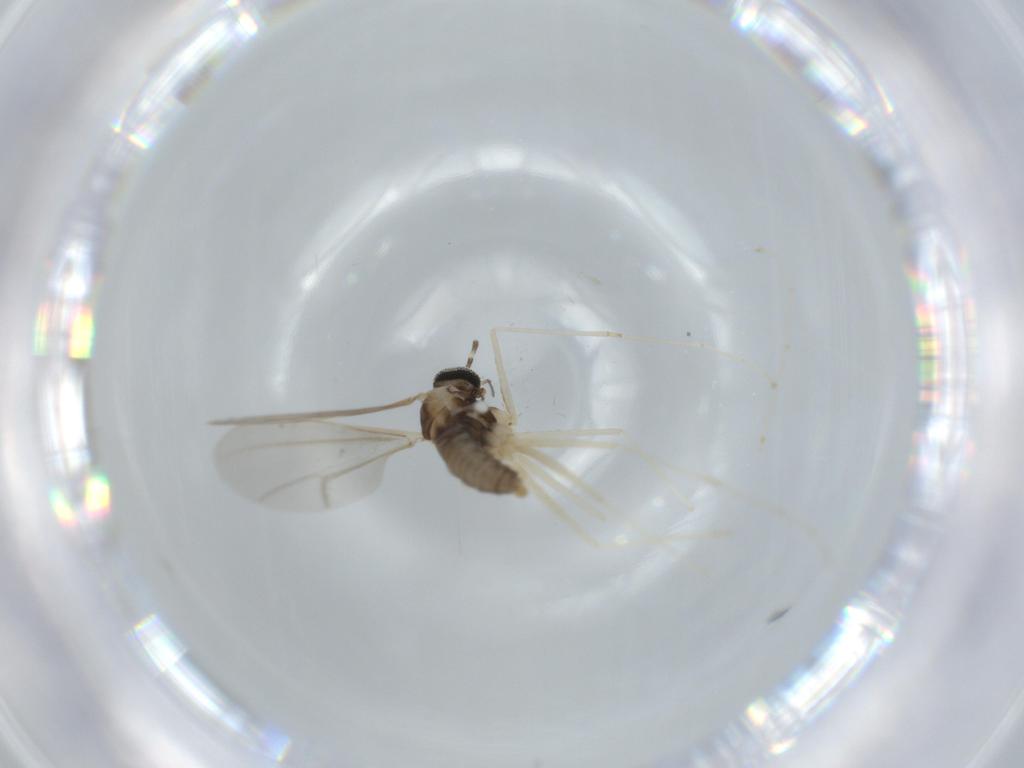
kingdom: Animalia
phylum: Arthropoda
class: Insecta
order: Diptera
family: Cecidomyiidae
